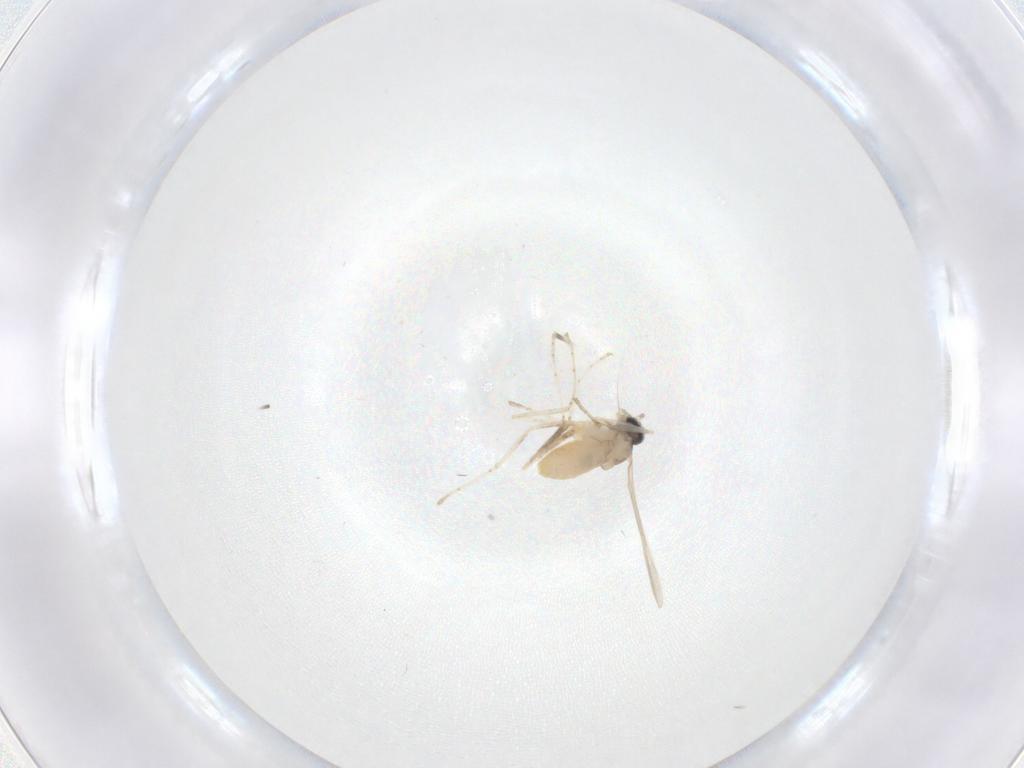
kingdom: Animalia
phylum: Arthropoda
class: Insecta
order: Diptera
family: Cecidomyiidae
